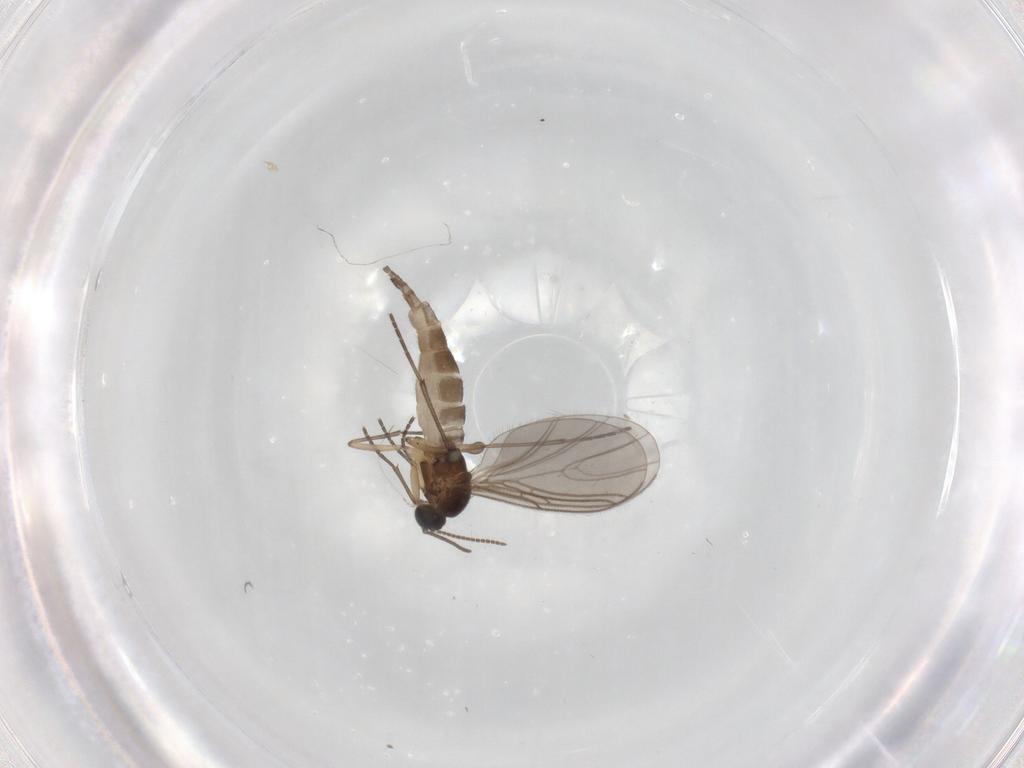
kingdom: Animalia
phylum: Arthropoda
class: Insecta
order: Diptera
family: Sciaridae
